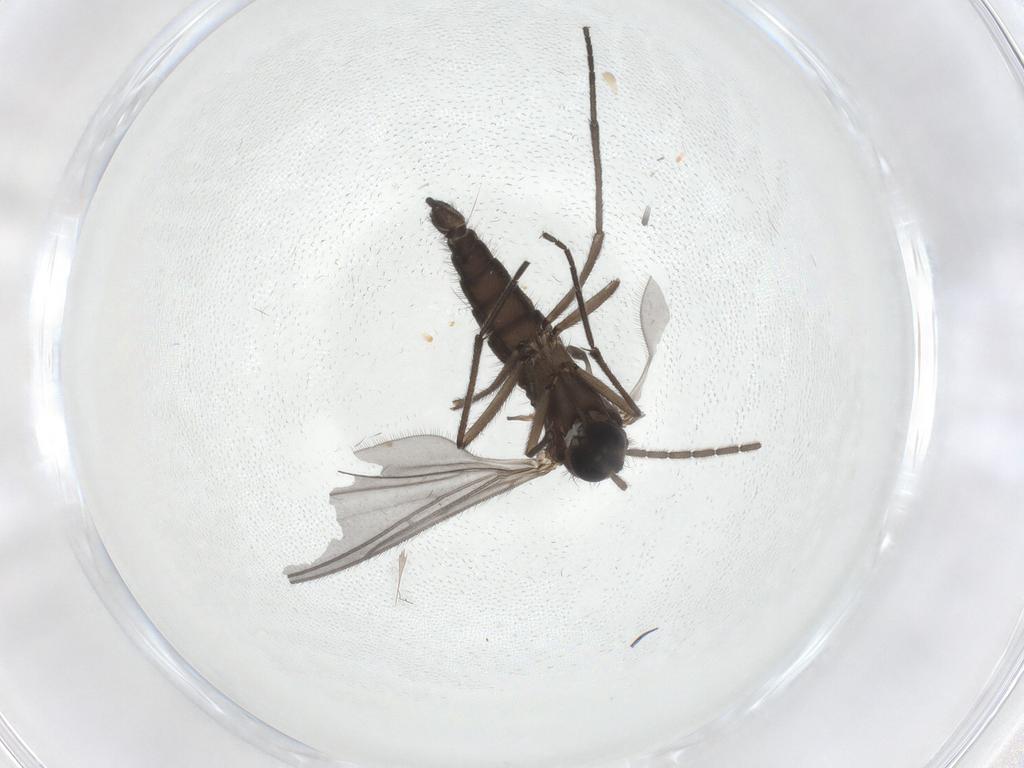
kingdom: Animalia
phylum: Arthropoda
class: Insecta
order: Diptera
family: Sciaridae
